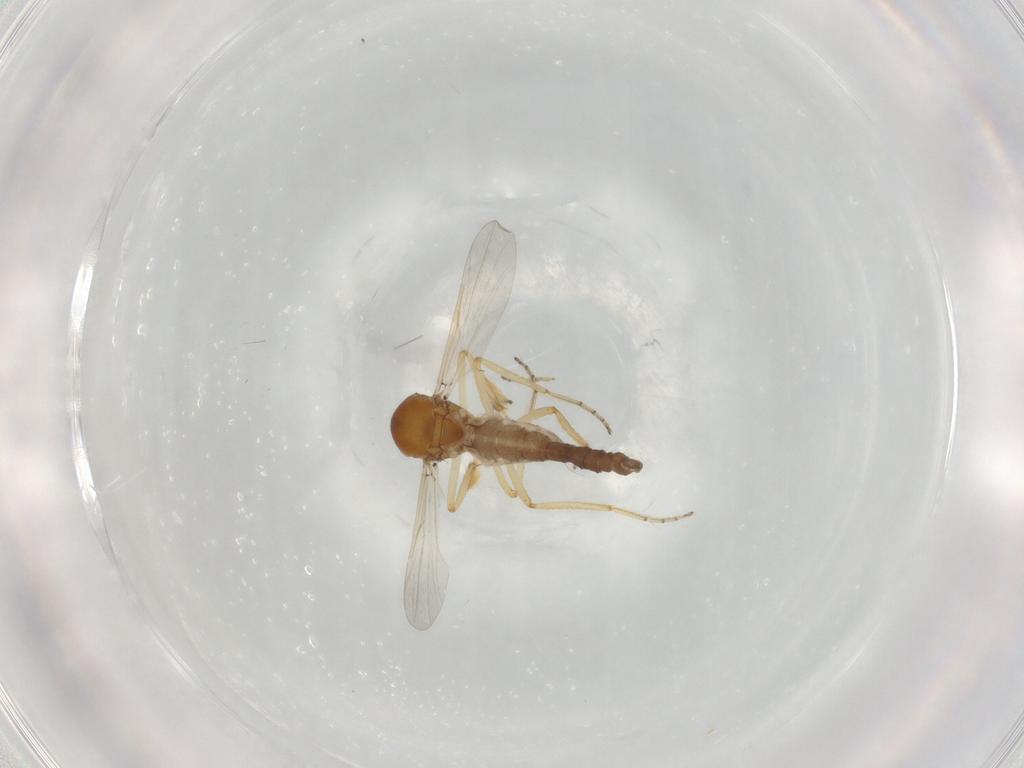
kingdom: Animalia
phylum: Arthropoda
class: Insecta
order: Diptera
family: Ceratopogonidae
